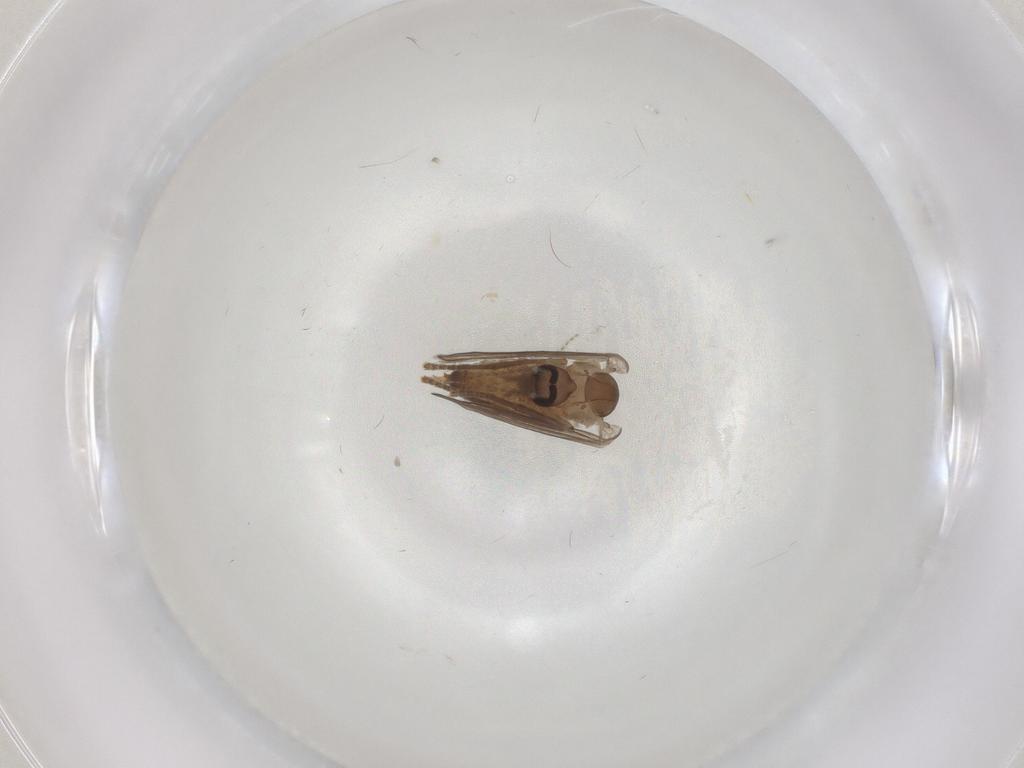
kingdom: Animalia
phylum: Arthropoda
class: Insecta
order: Diptera
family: Psychodidae
